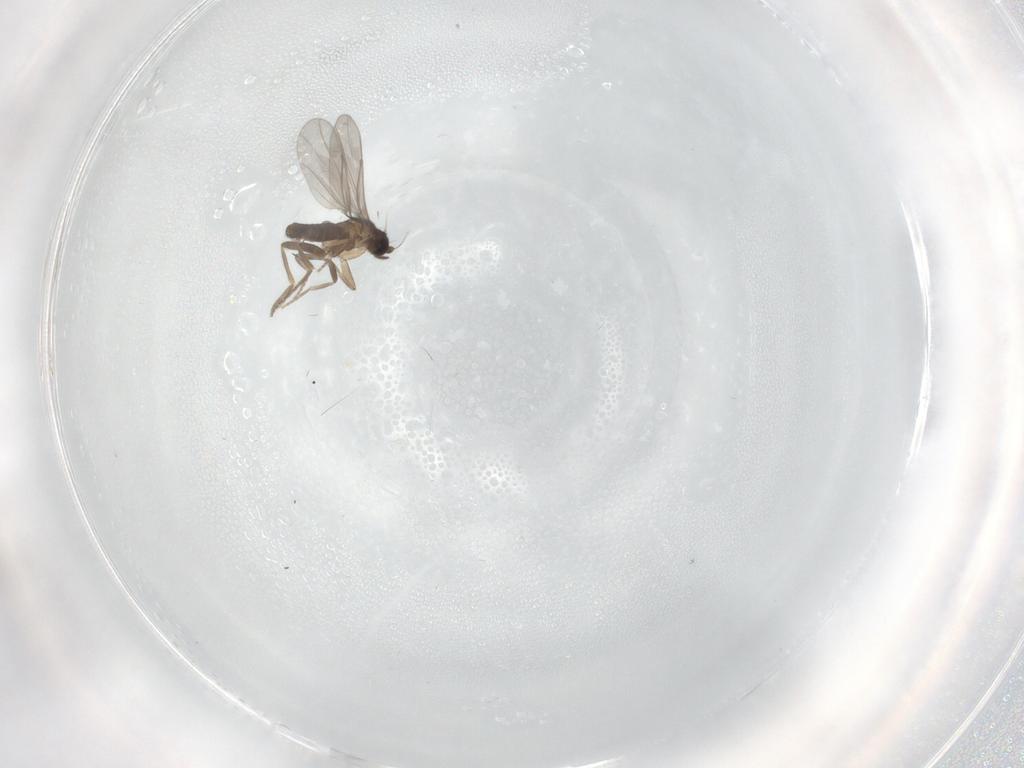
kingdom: Animalia
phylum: Arthropoda
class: Insecta
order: Diptera
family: Cecidomyiidae
